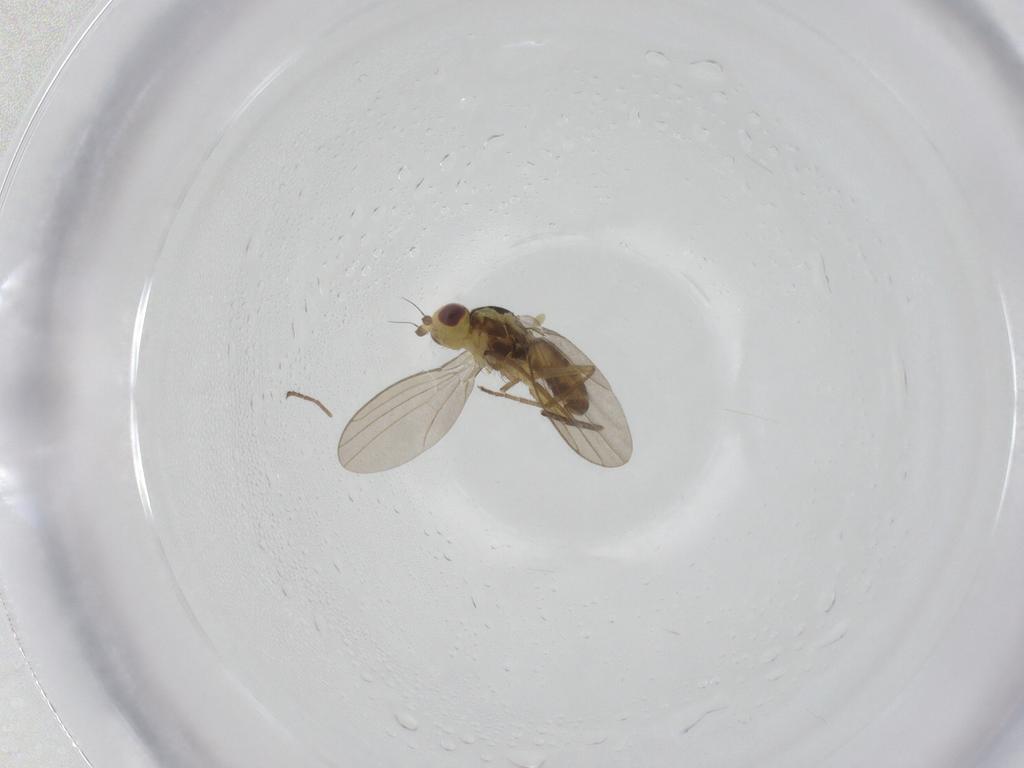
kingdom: Animalia
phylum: Arthropoda
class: Insecta
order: Diptera
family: Agromyzidae
